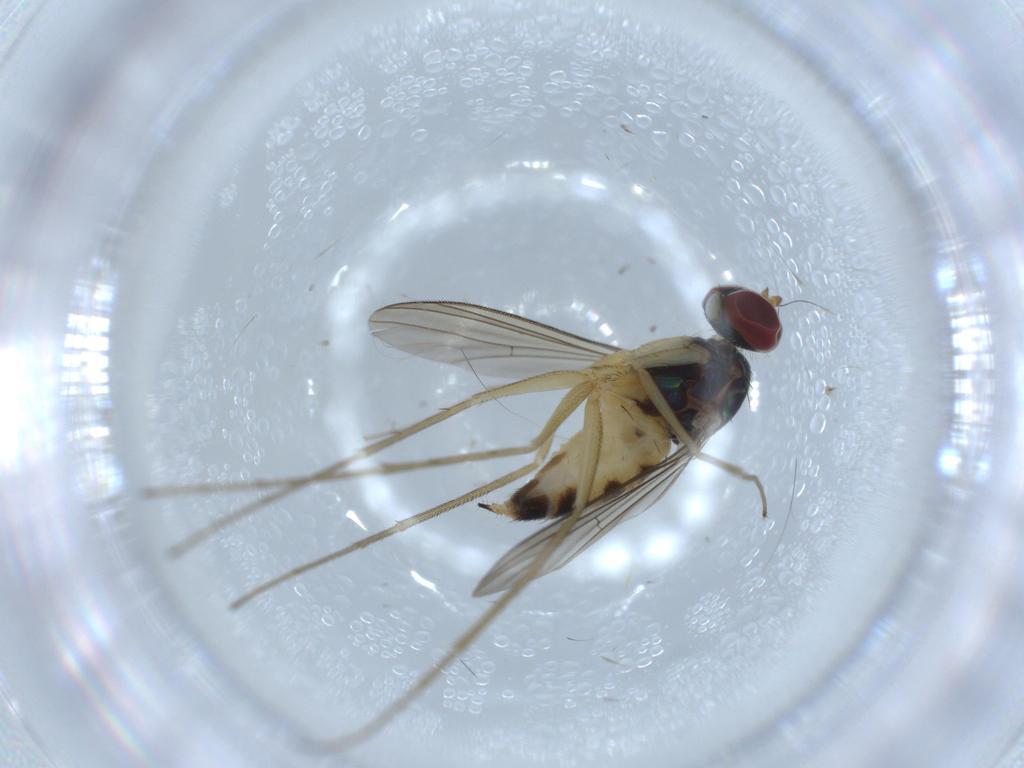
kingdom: Animalia
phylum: Arthropoda
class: Insecta
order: Diptera
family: Dolichopodidae
